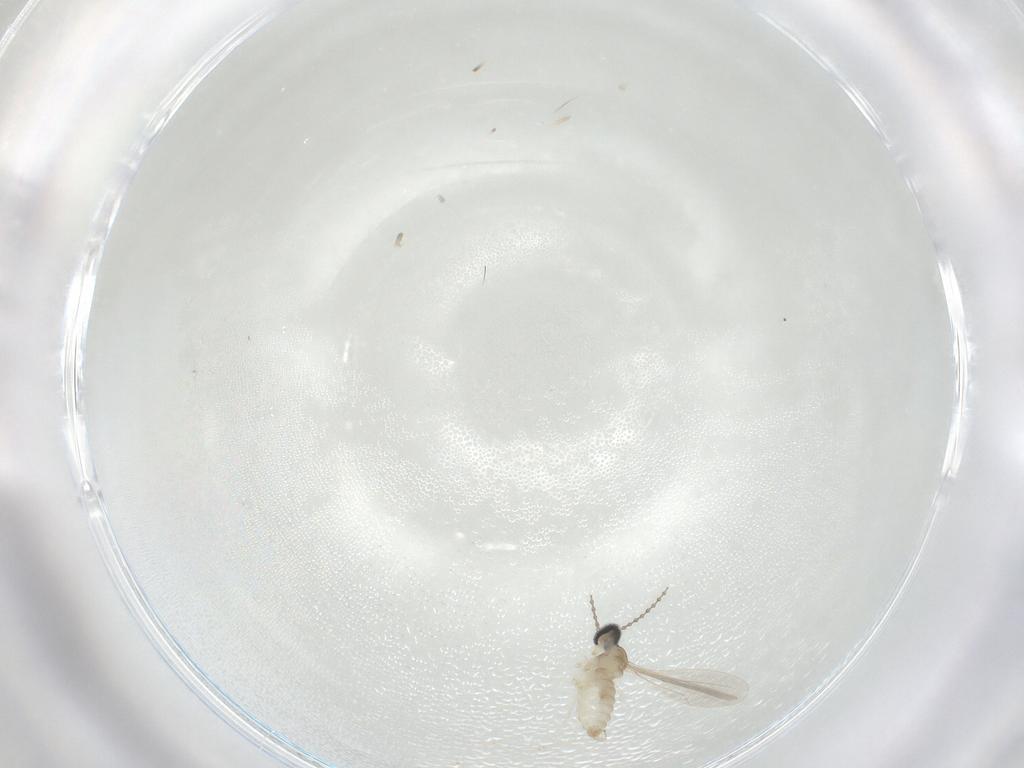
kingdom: Animalia
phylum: Arthropoda
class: Insecta
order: Diptera
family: Cecidomyiidae
